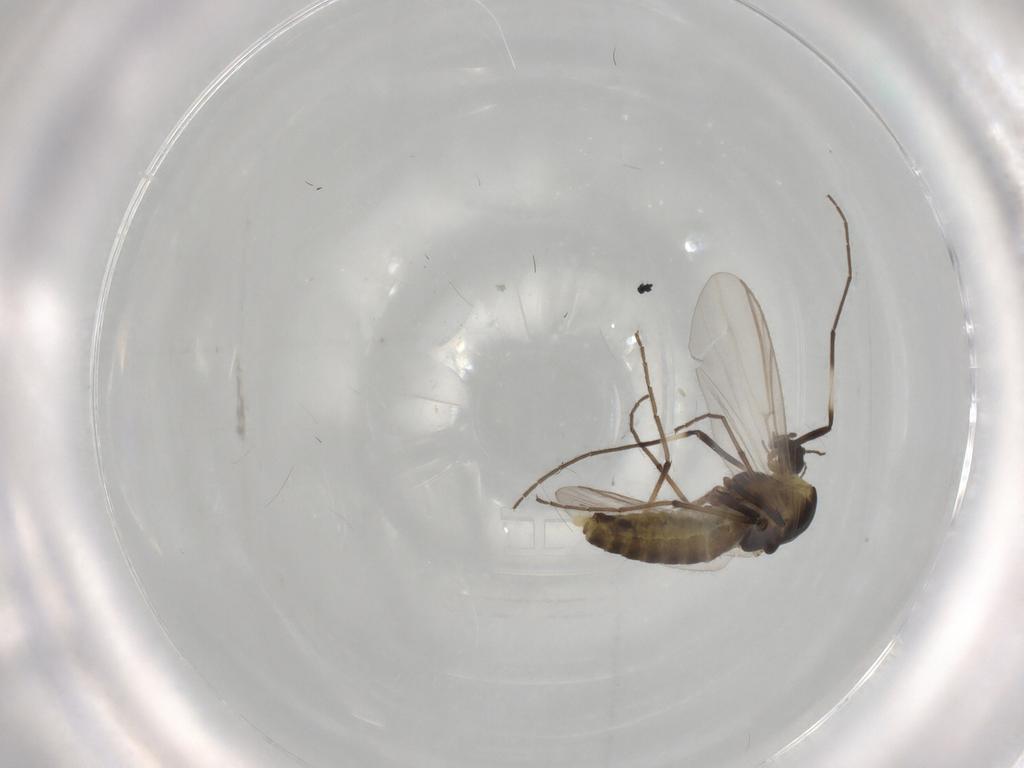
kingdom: Animalia
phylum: Arthropoda
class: Insecta
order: Diptera
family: Chironomidae
